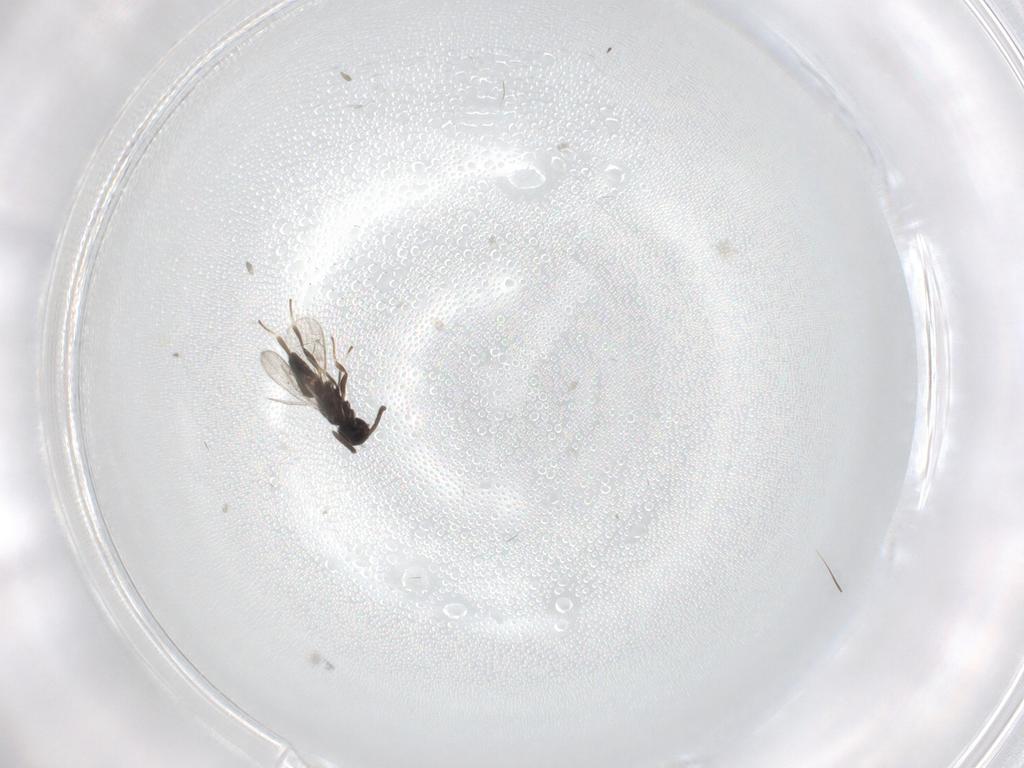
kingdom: Animalia
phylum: Arthropoda
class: Insecta
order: Hymenoptera
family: Eupelmidae
